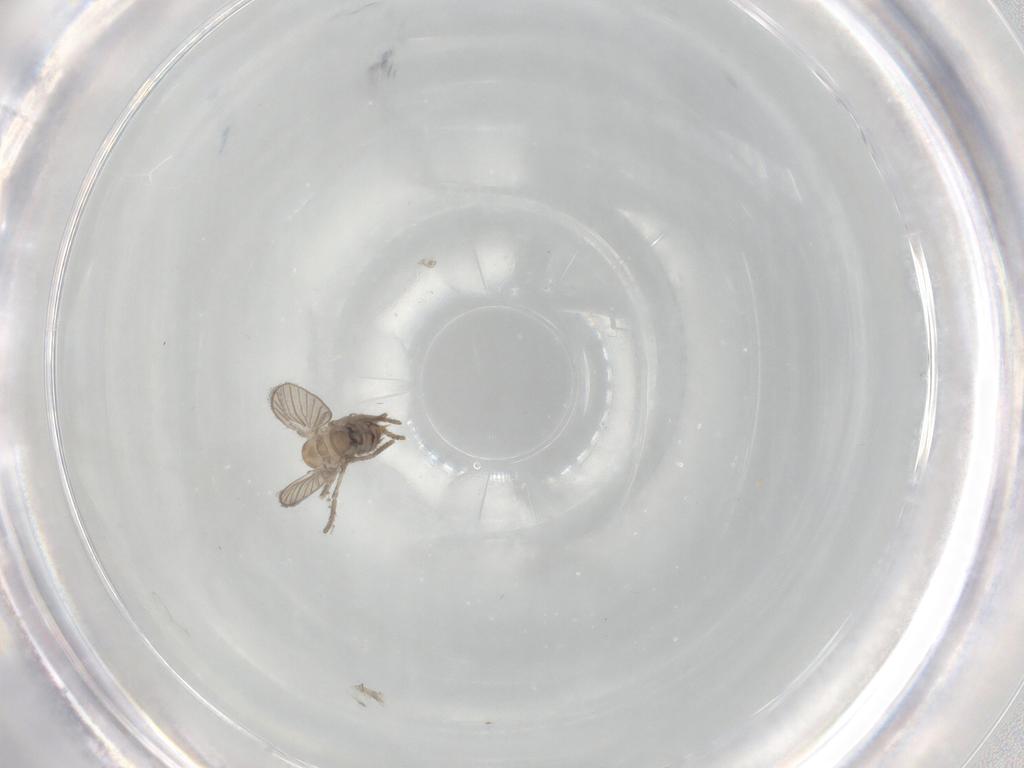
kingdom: Animalia
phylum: Arthropoda
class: Insecta
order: Diptera
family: Psychodidae
